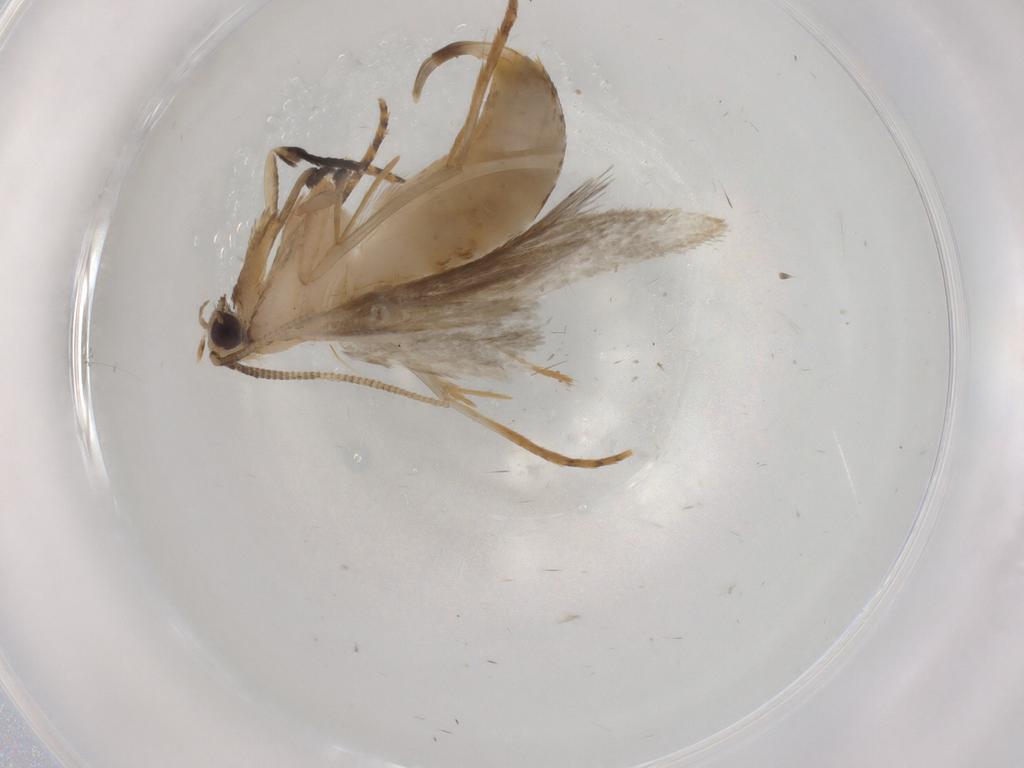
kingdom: Animalia
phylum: Arthropoda
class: Insecta
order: Lepidoptera
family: Tineidae
